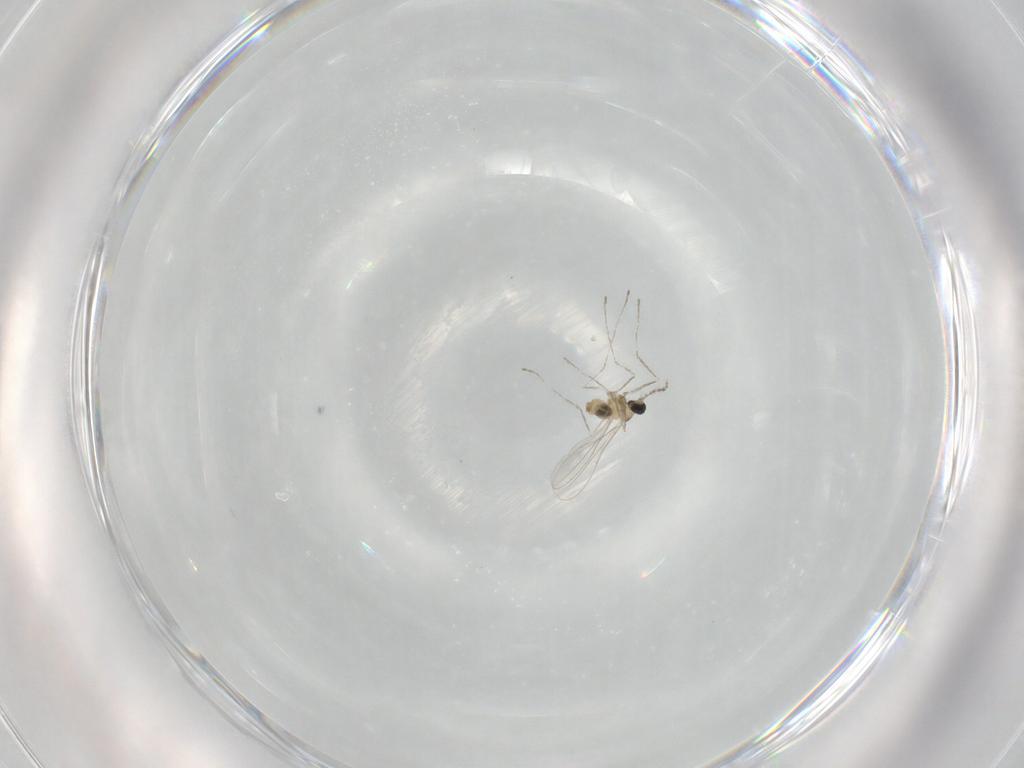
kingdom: Animalia
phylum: Arthropoda
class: Insecta
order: Diptera
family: Cecidomyiidae
